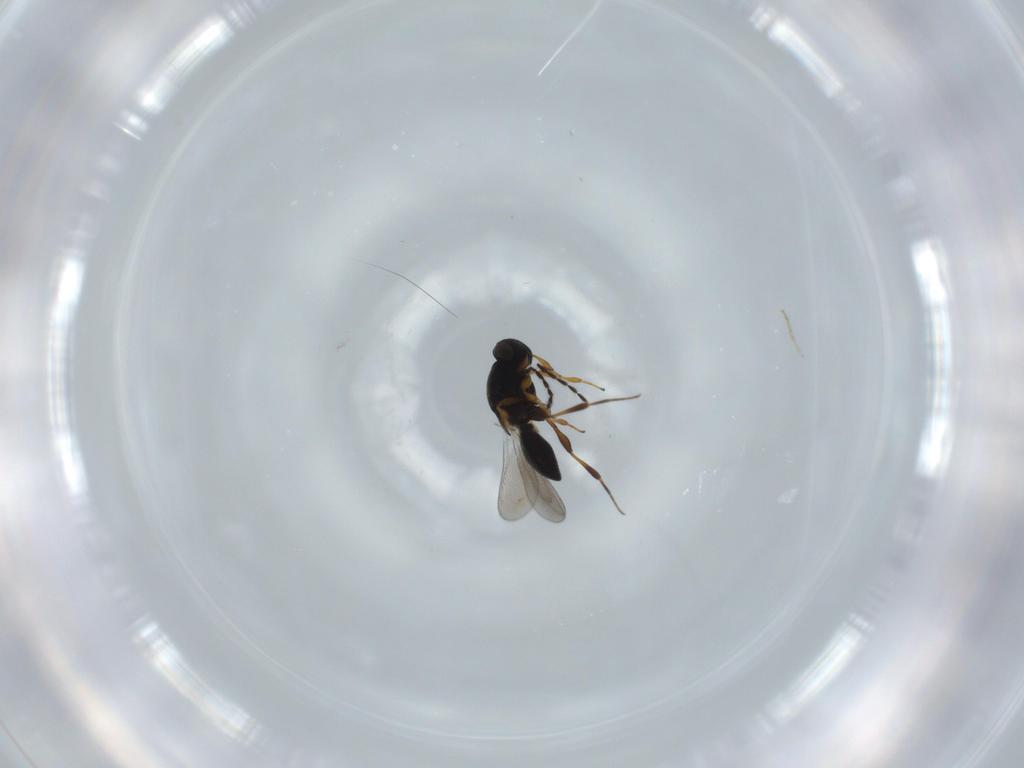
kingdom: Animalia
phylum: Arthropoda
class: Insecta
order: Hymenoptera
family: Platygastridae
